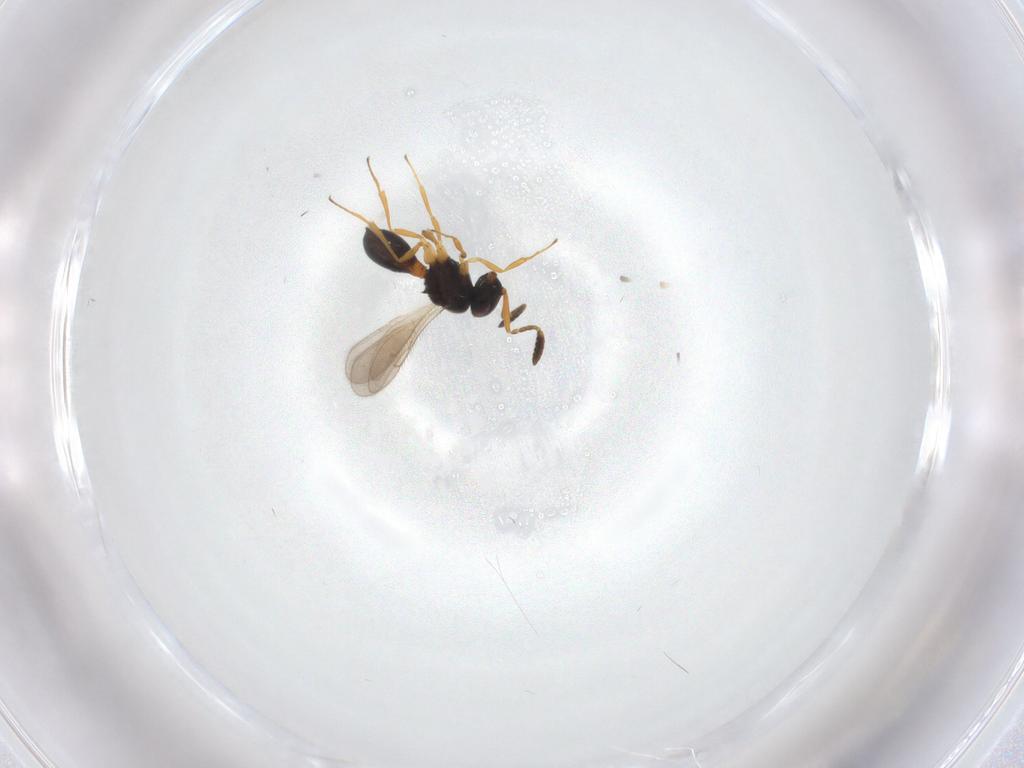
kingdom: Animalia
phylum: Arthropoda
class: Insecta
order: Hymenoptera
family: Scelionidae
